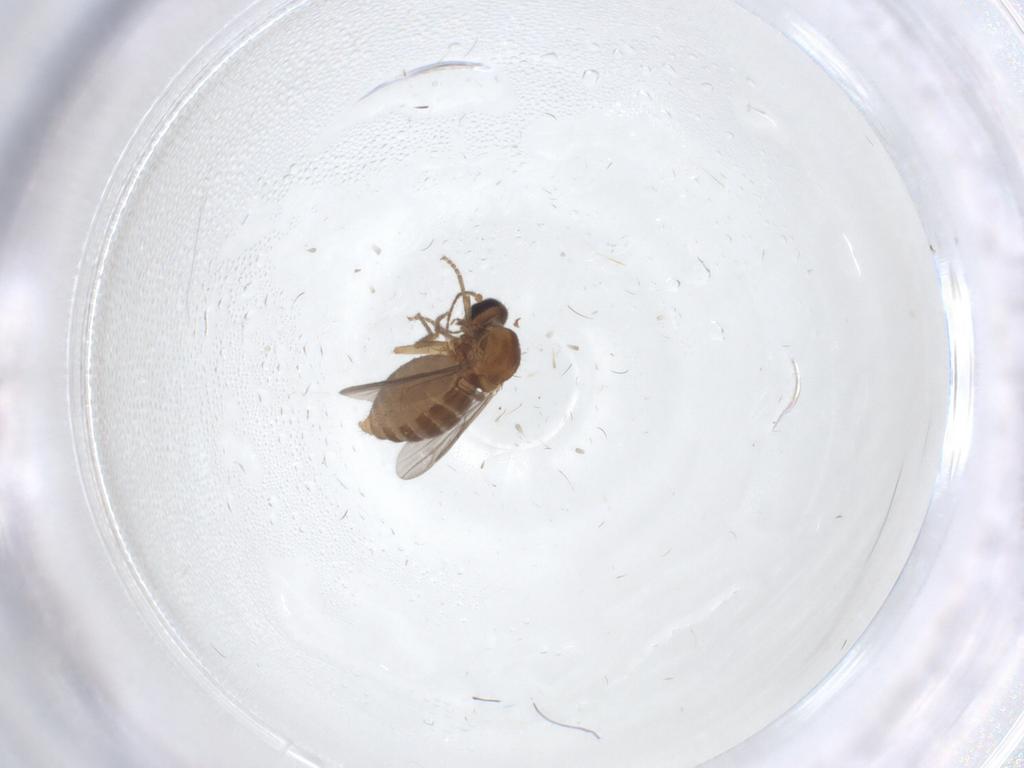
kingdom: Animalia
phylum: Arthropoda
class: Insecta
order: Diptera
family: Ceratopogonidae
